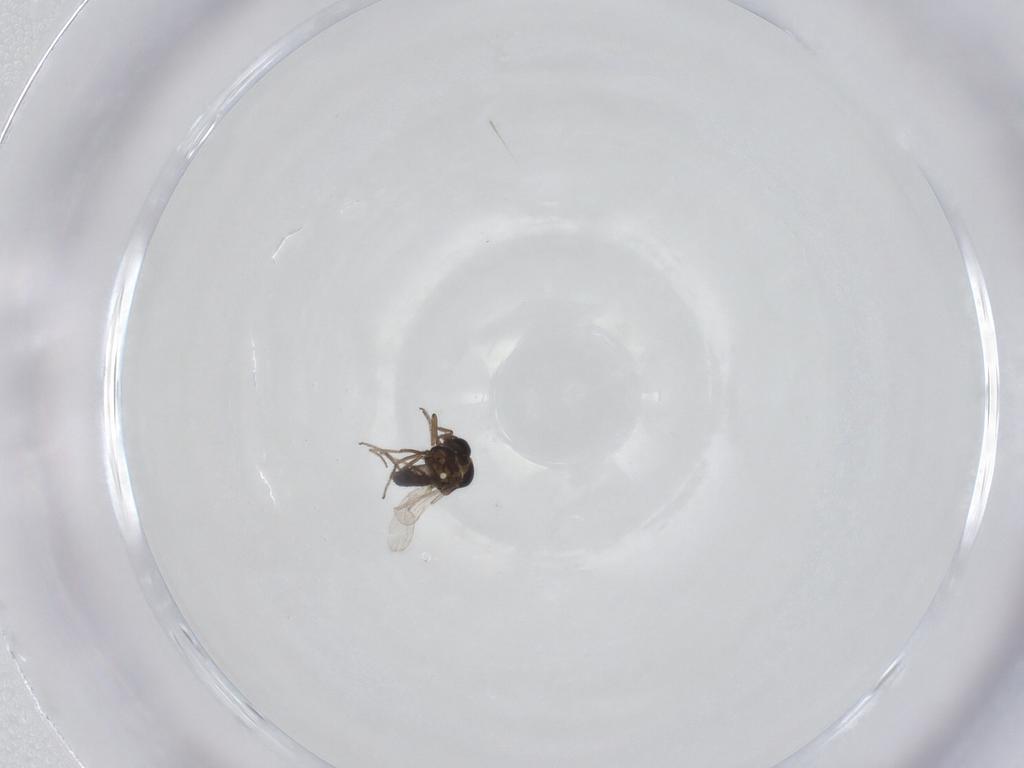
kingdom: Animalia
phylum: Arthropoda
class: Insecta
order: Diptera
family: Ceratopogonidae
